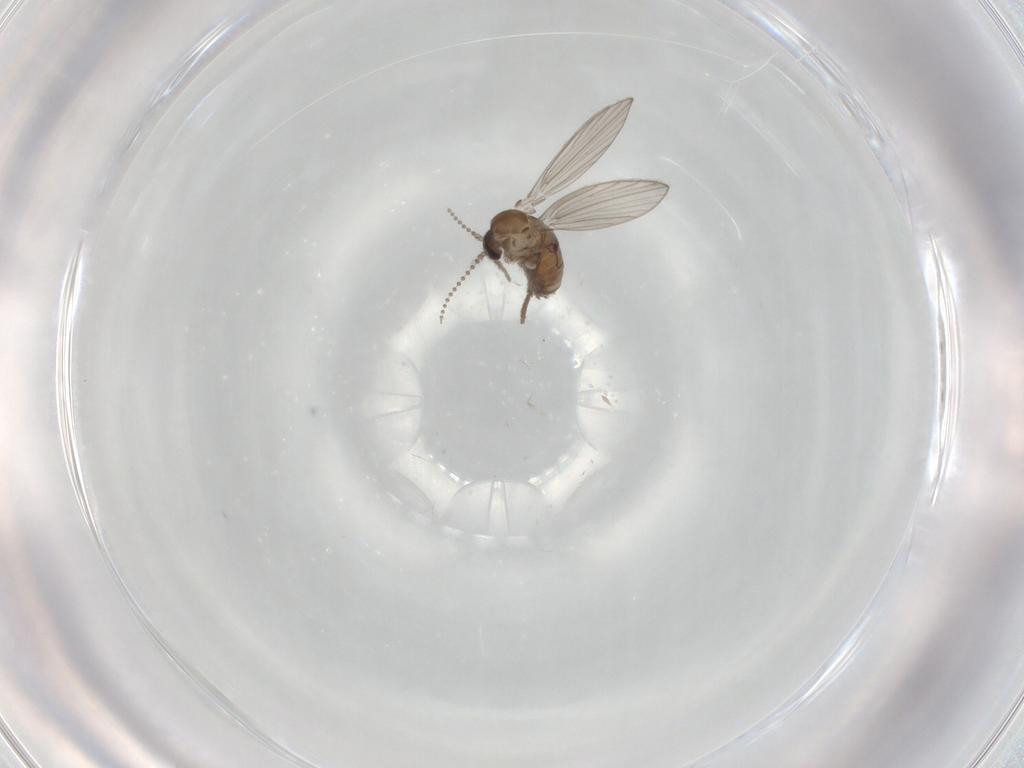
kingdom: Animalia
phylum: Arthropoda
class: Insecta
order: Diptera
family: Psychodidae
